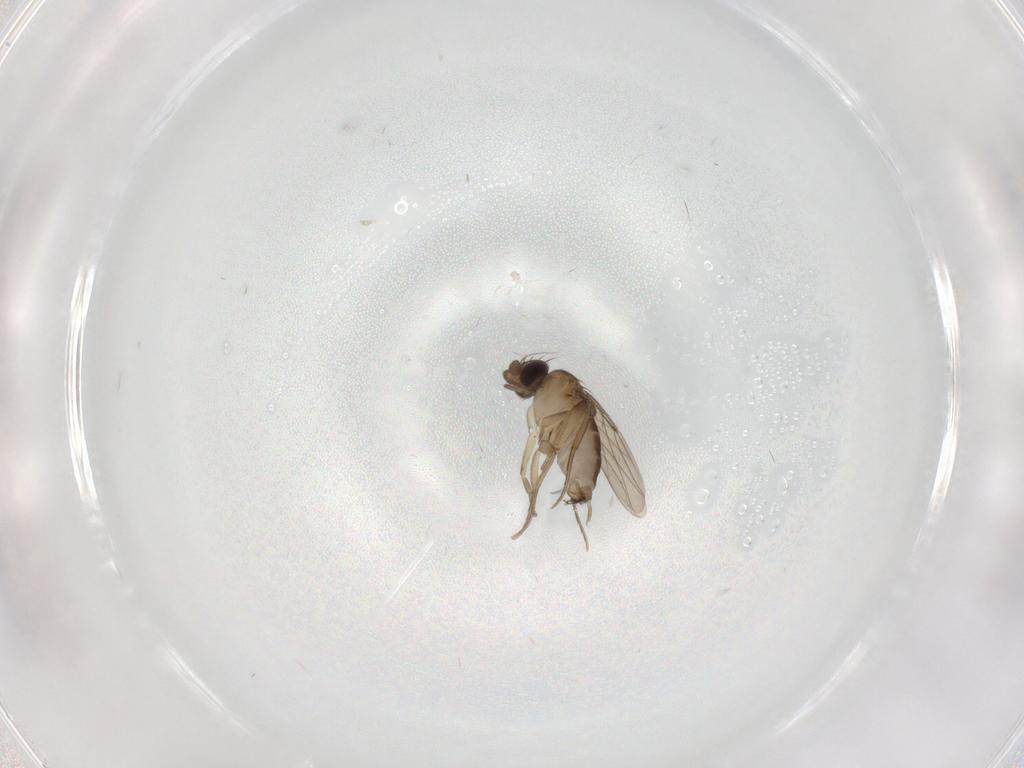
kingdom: Animalia
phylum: Arthropoda
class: Insecta
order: Diptera
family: Phoridae
